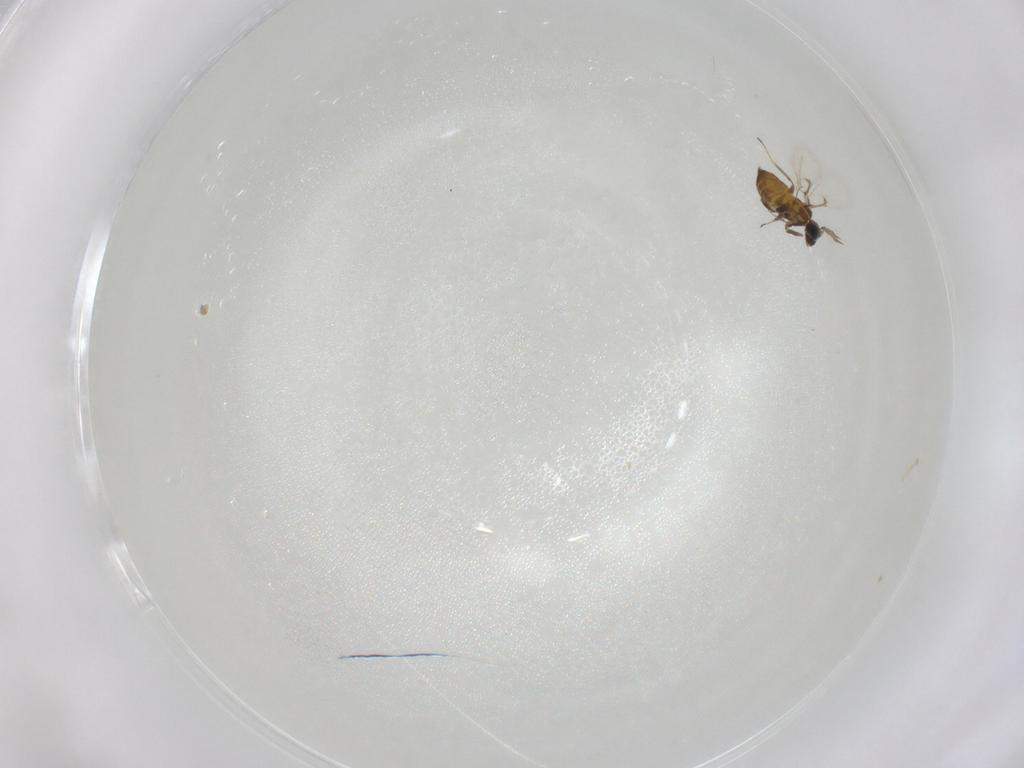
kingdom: Animalia
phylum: Arthropoda
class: Insecta
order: Hymenoptera
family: Trichogrammatidae
